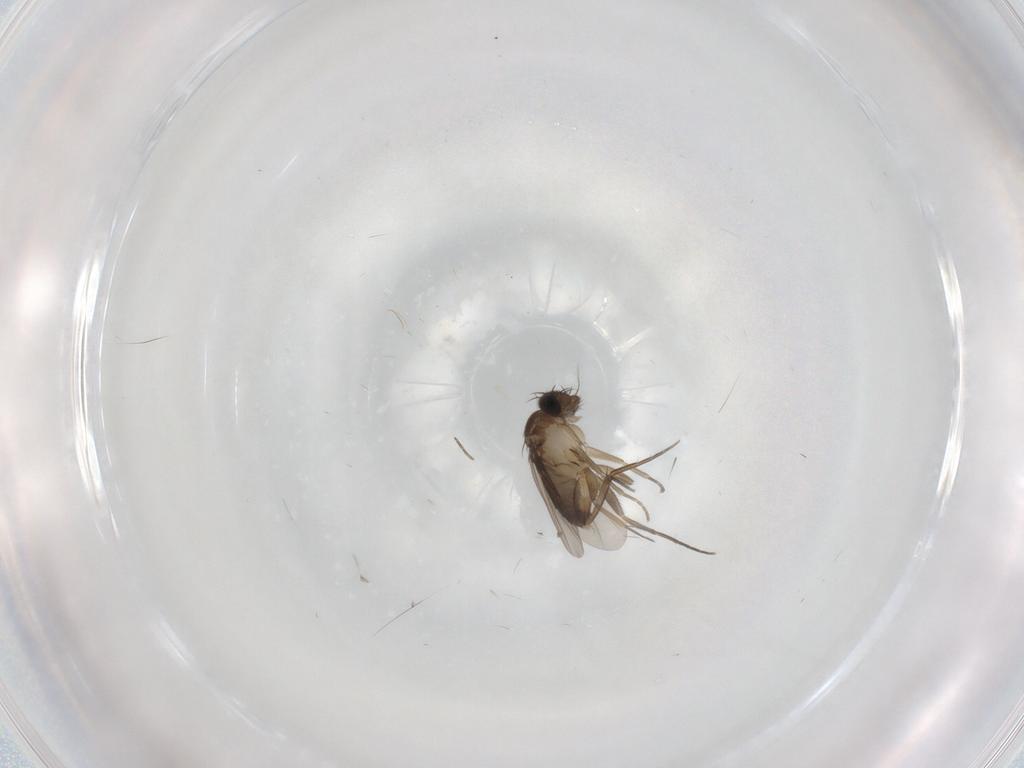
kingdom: Animalia
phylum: Arthropoda
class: Insecta
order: Diptera
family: Phoridae
